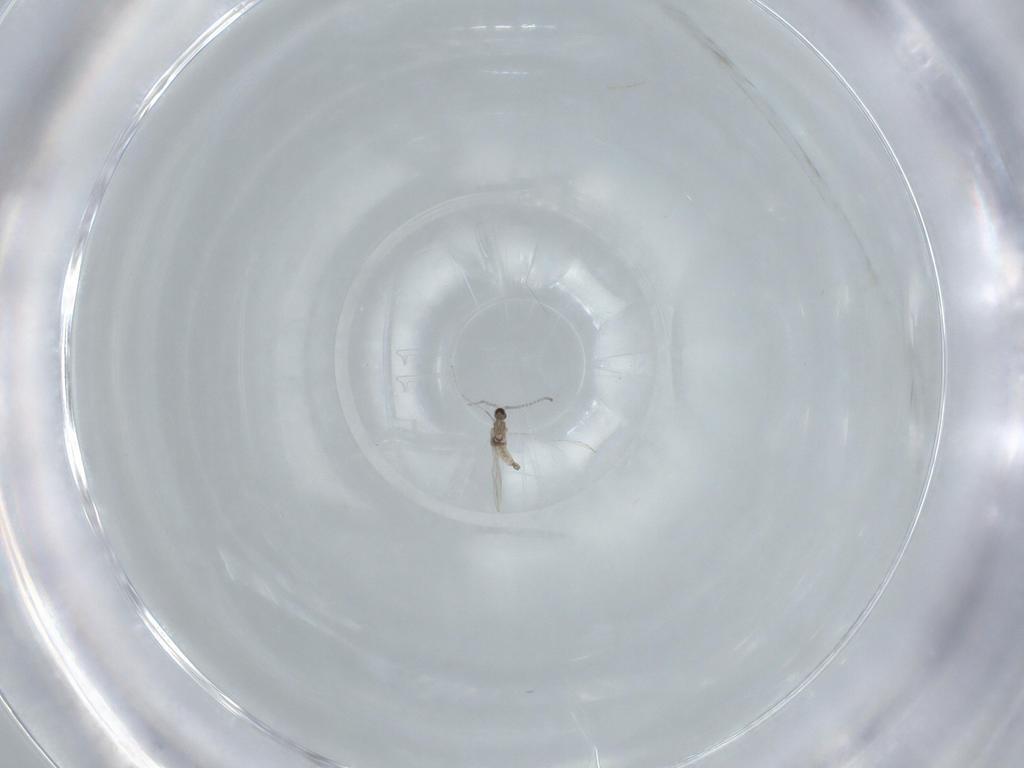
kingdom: Animalia
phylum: Arthropoda
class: Insecta
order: Diptera
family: Cecidomyiidae
